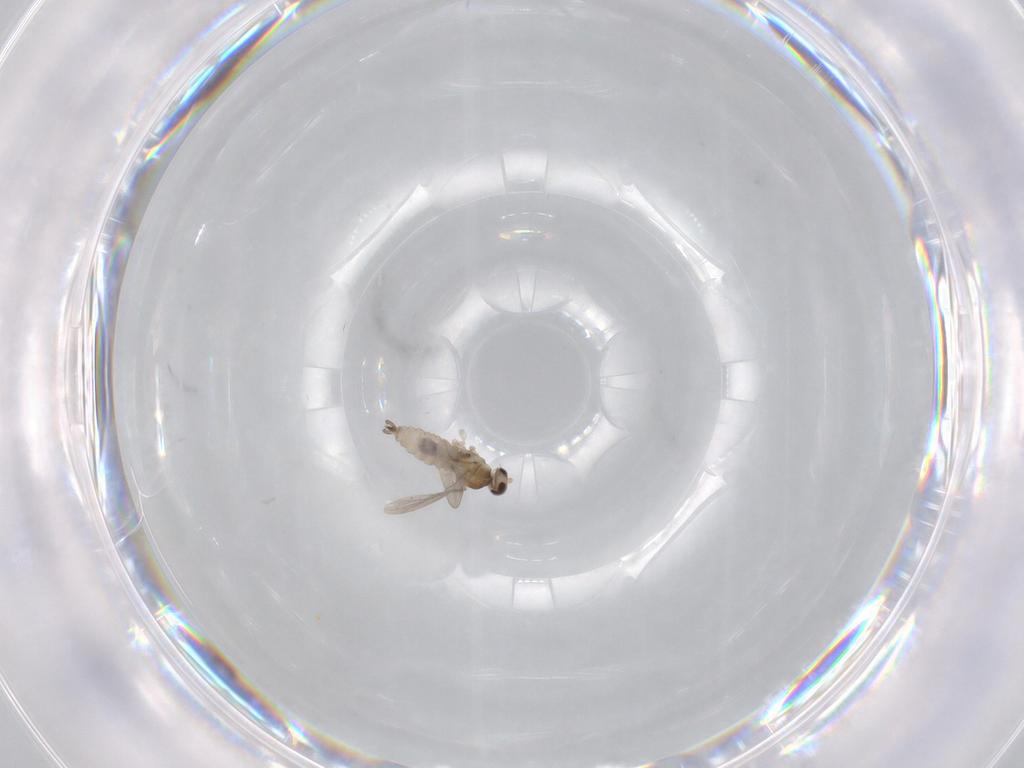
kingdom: Animalia
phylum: Arthropoda
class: Insecta
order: Diptera
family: Cecidomyiidae
